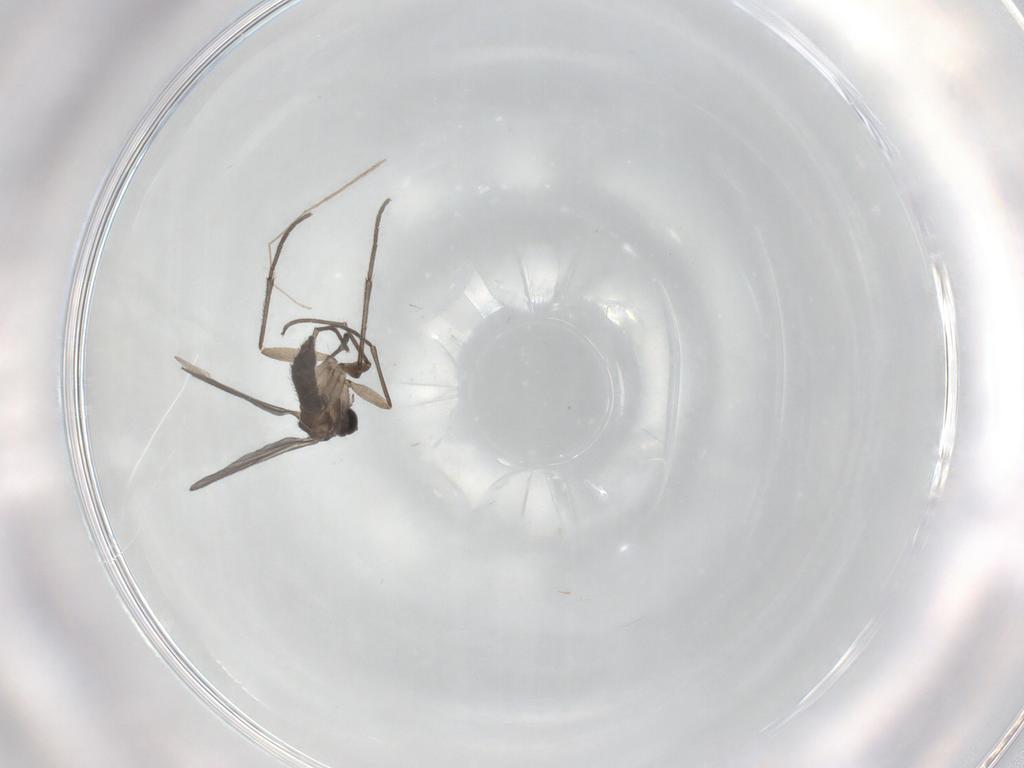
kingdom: Animalia
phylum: Arthropoda
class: Insecta
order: Diptera
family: Sciaridae
